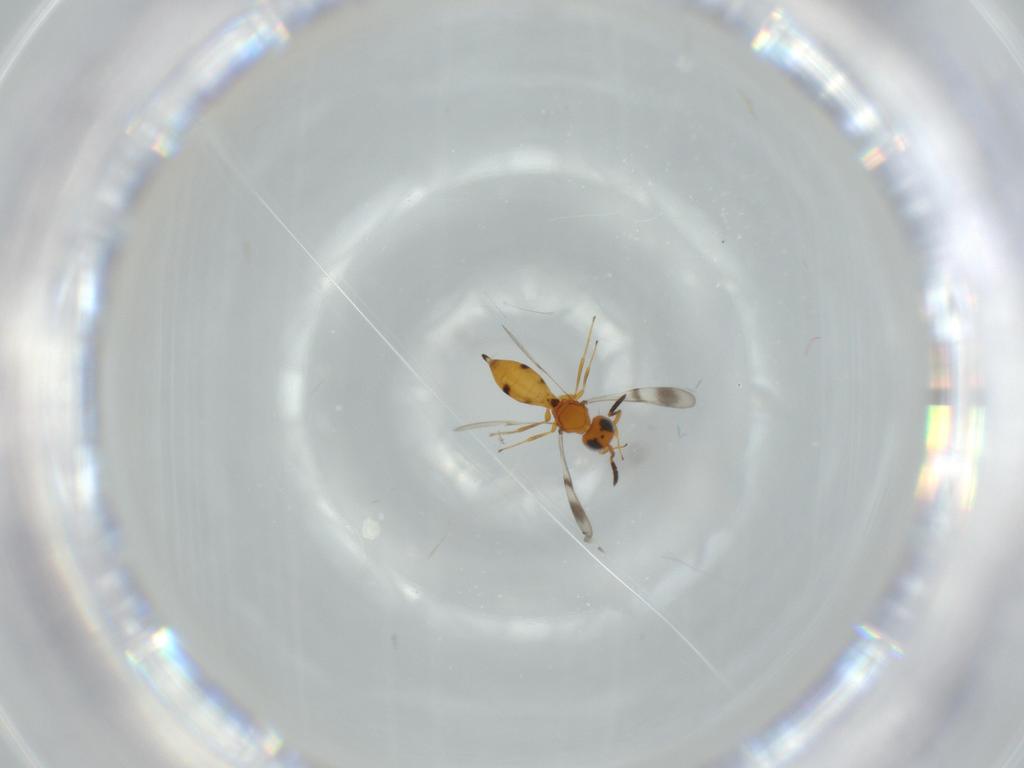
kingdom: Animalia
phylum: Arthropoda
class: Insecta
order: Hymenoptera
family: Scelionidae
